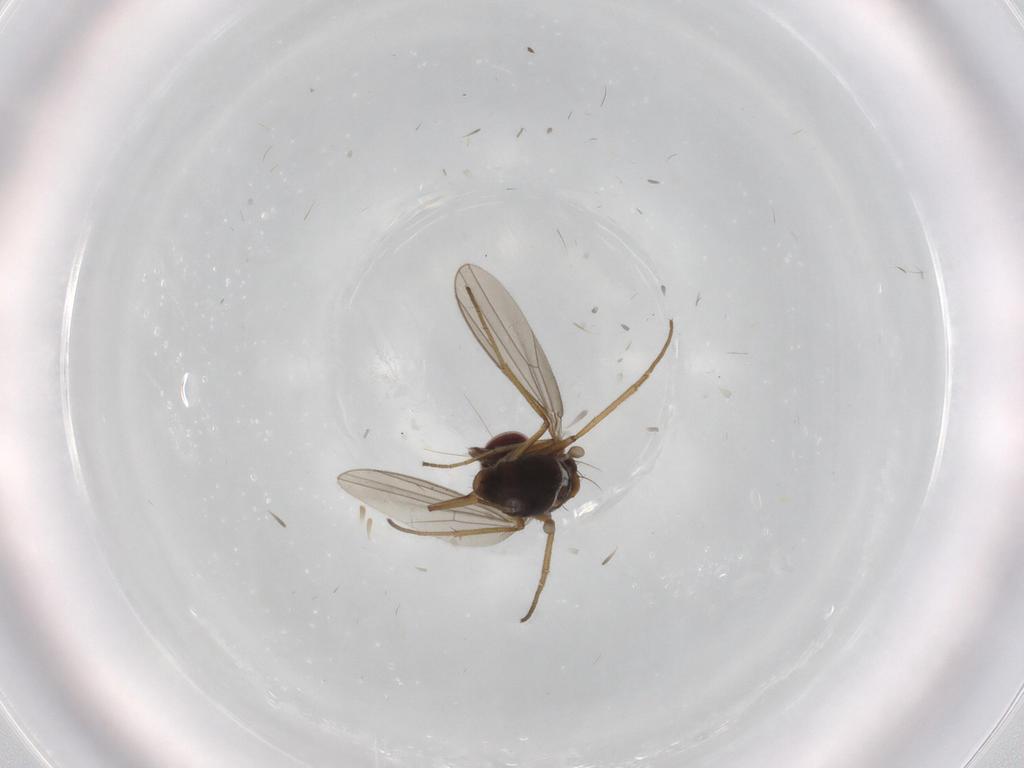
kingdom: Animalia
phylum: Arthropoda
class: Insecta
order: Diptera
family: Dolichopodidae
